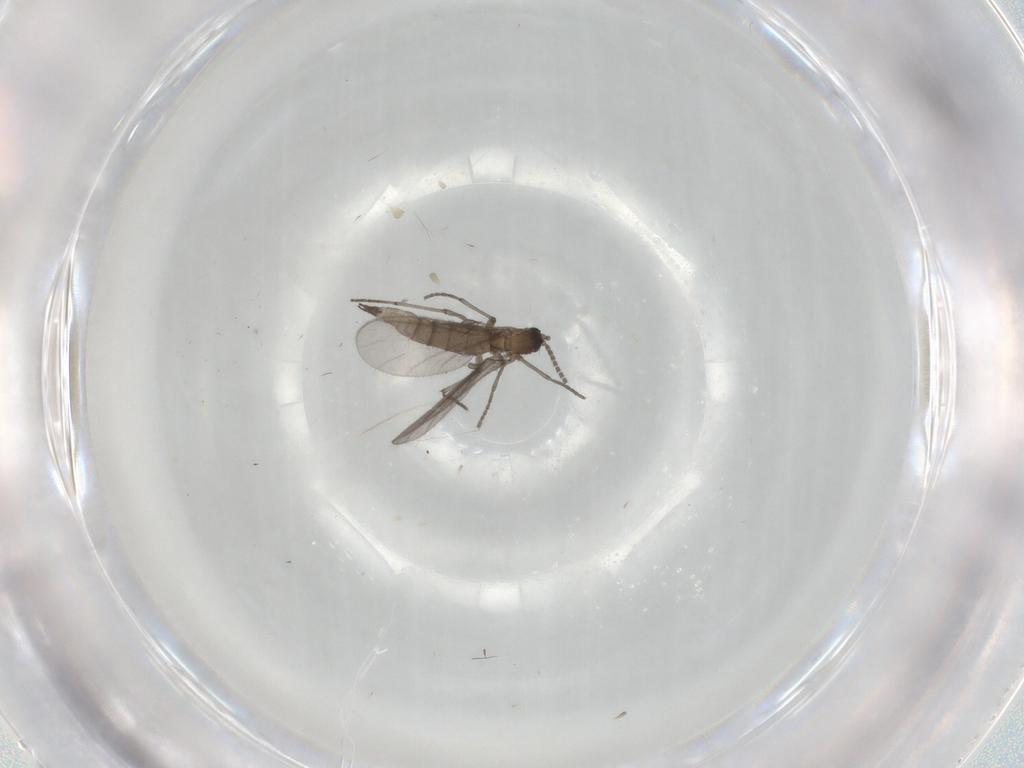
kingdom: Animalia
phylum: Arthropoda
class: Insecta
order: Diptera
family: Sciaridae
